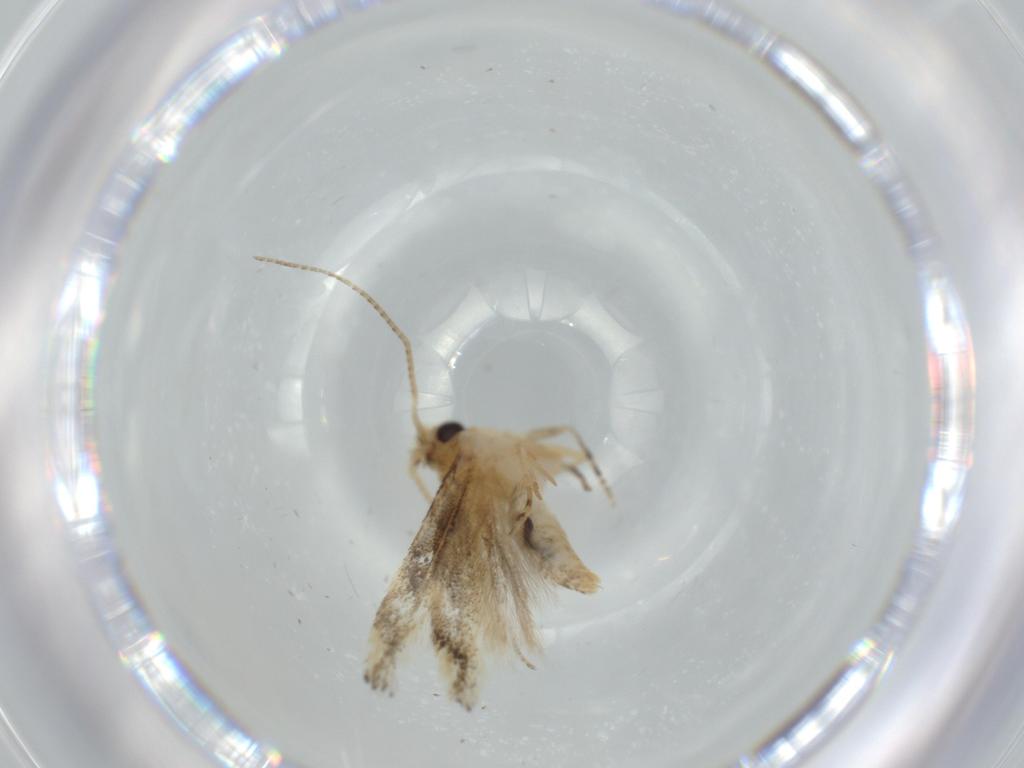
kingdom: Animalia
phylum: Arthropoda
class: Insecta
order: Lepidoptera
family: Bucculatricidae
